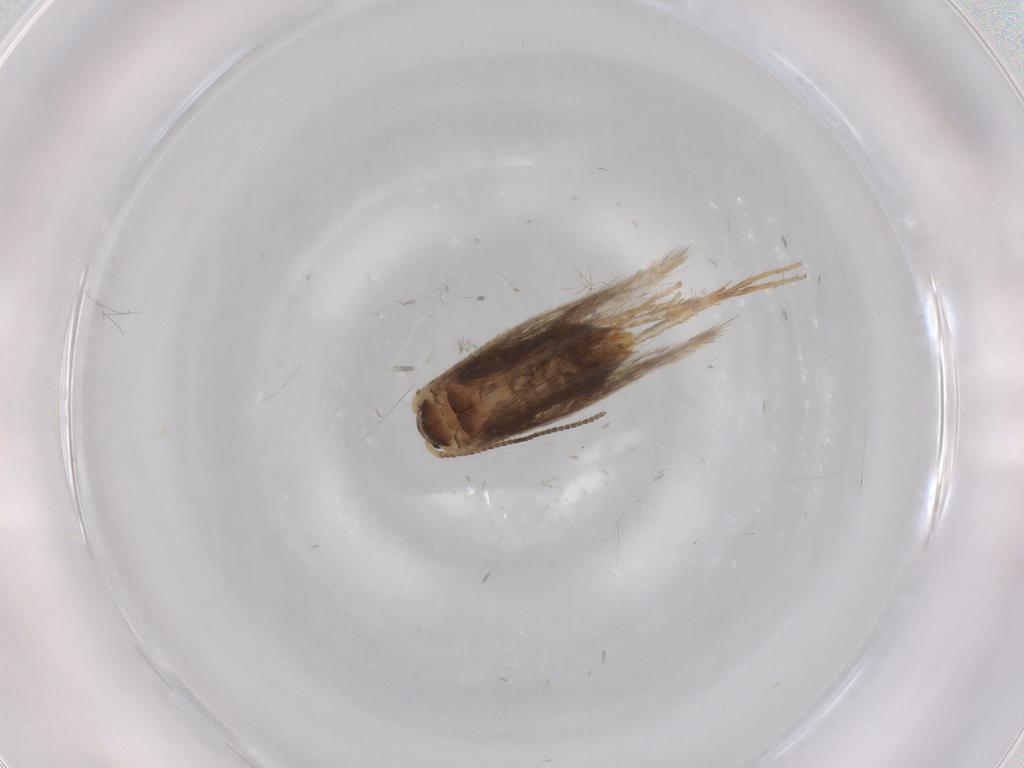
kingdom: Animalia
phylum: Arthropoda
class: Insecta
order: Lepidoptera
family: Nepticulidae
